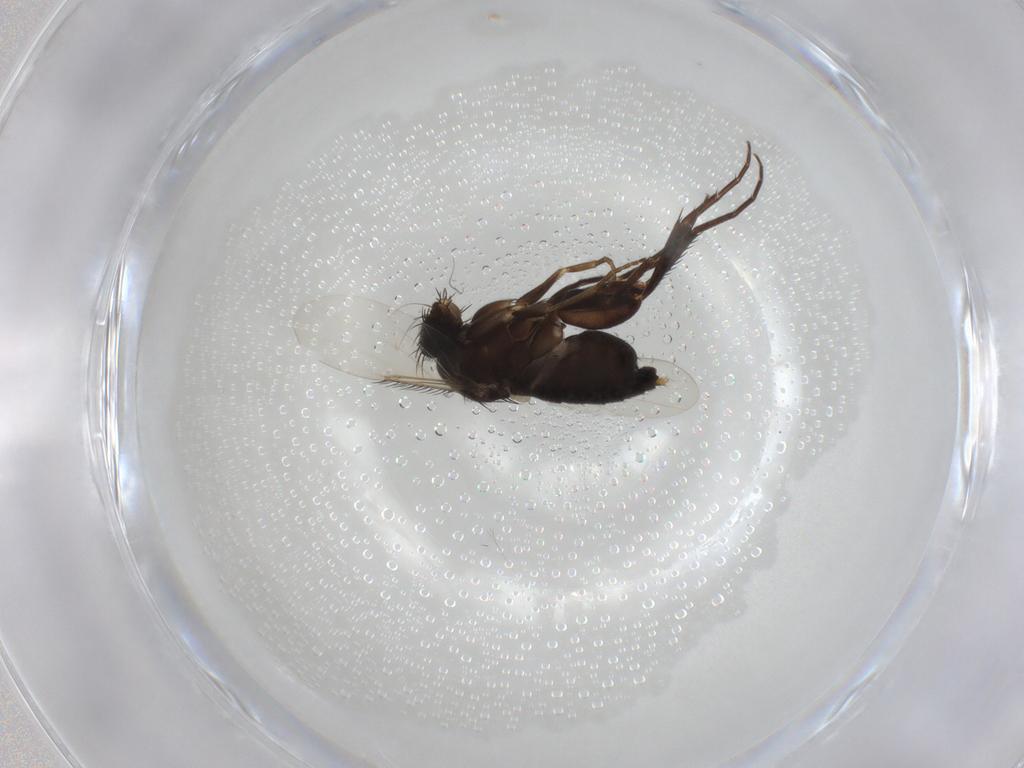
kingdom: Animalia
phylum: Arthropoda
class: Insecta
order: Diptera
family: Phoridae
